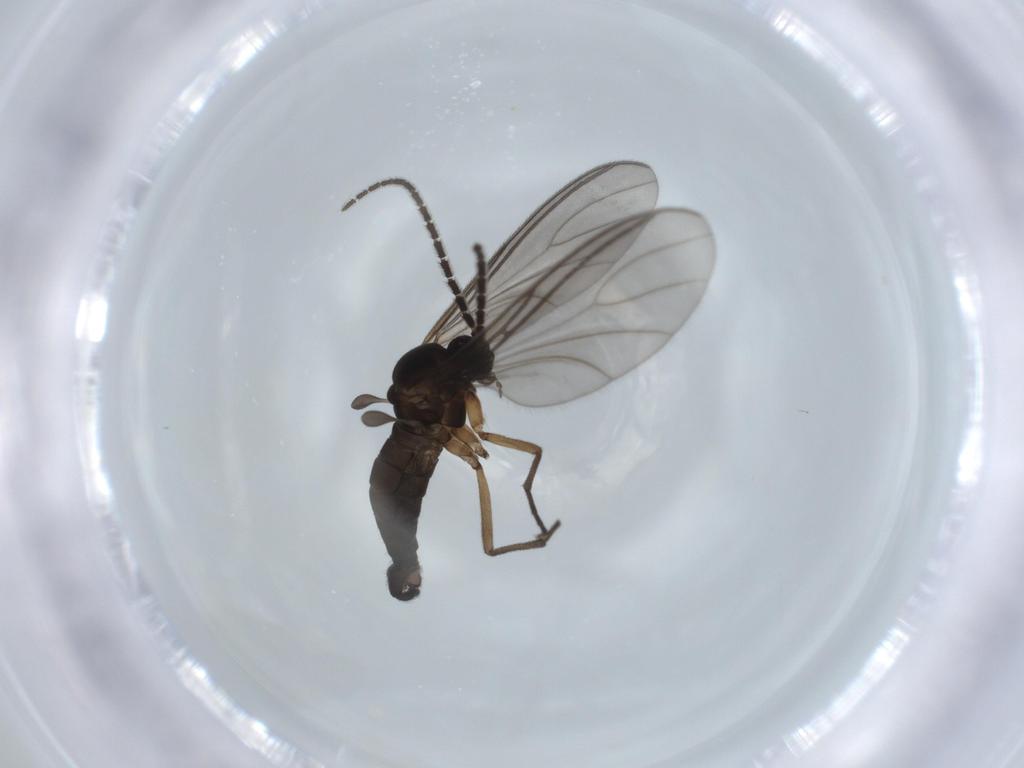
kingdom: Animalia
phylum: Arthropoda
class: Insecta
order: Diptera
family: Sciaridae
